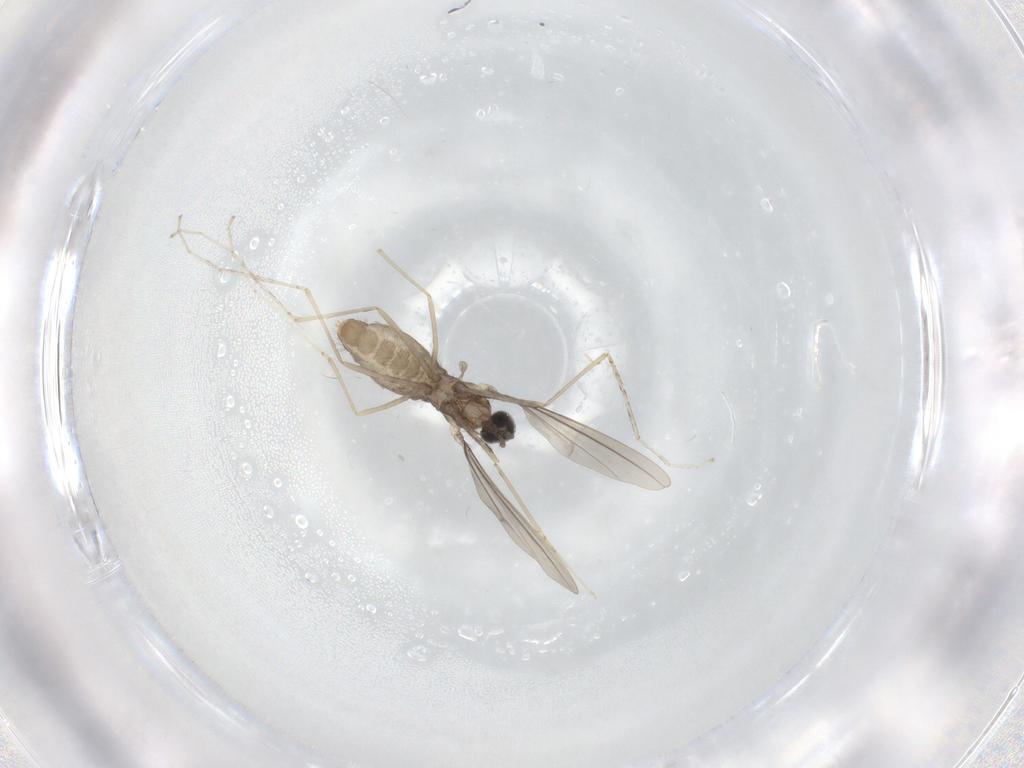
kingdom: Animalia
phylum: Arthropoda
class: Insecta
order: Diptera
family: Cecidomyiidae
